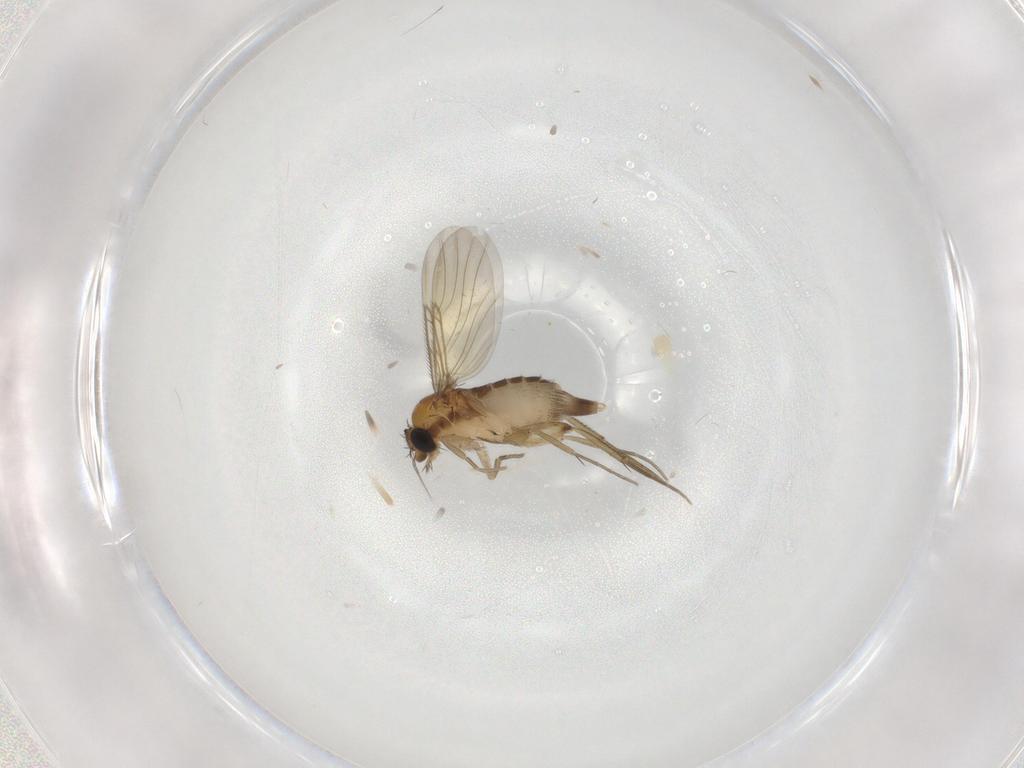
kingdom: Animalia
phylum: Arthropoda
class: Insecta
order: Diptera
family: Phoridae
